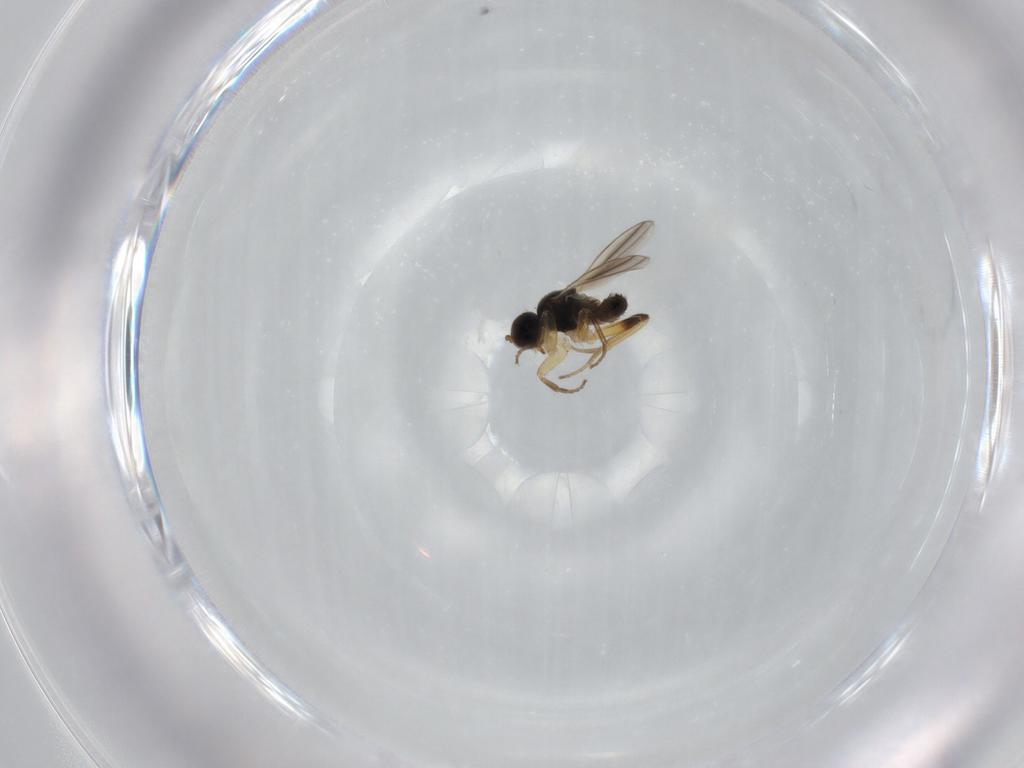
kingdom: Animalia
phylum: Arthropoda
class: Insecta
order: Diptera
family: Hybotidae
